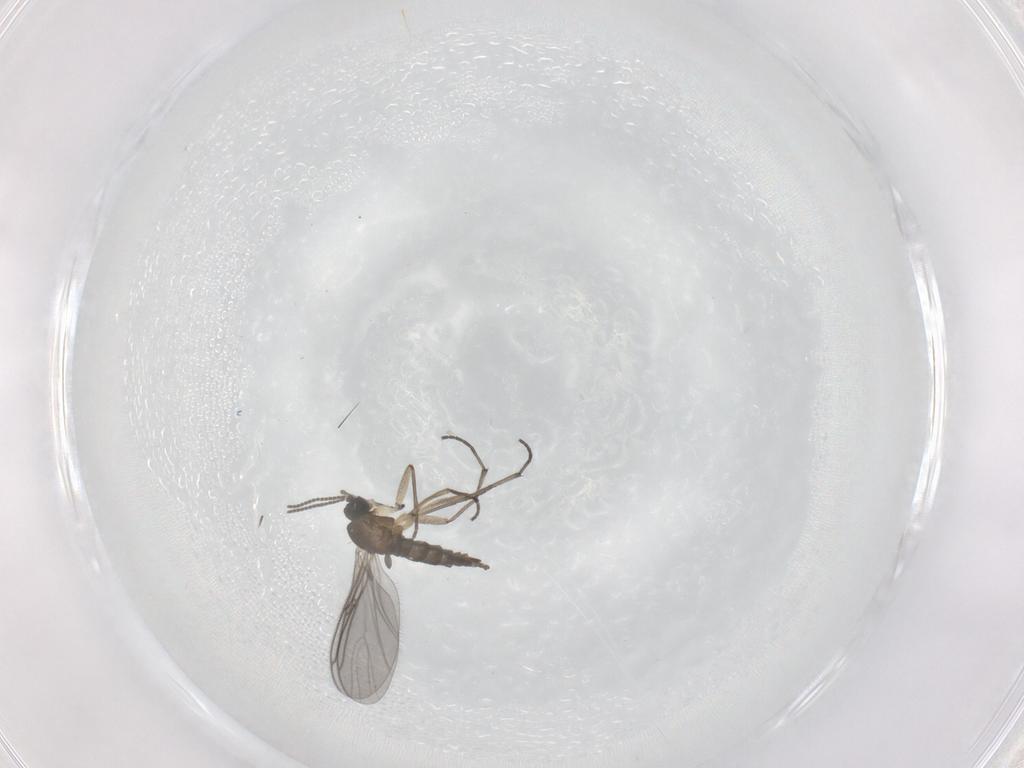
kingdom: Animalia
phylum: Arthropoda
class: Insecta
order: Diptera
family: Sciaridae
